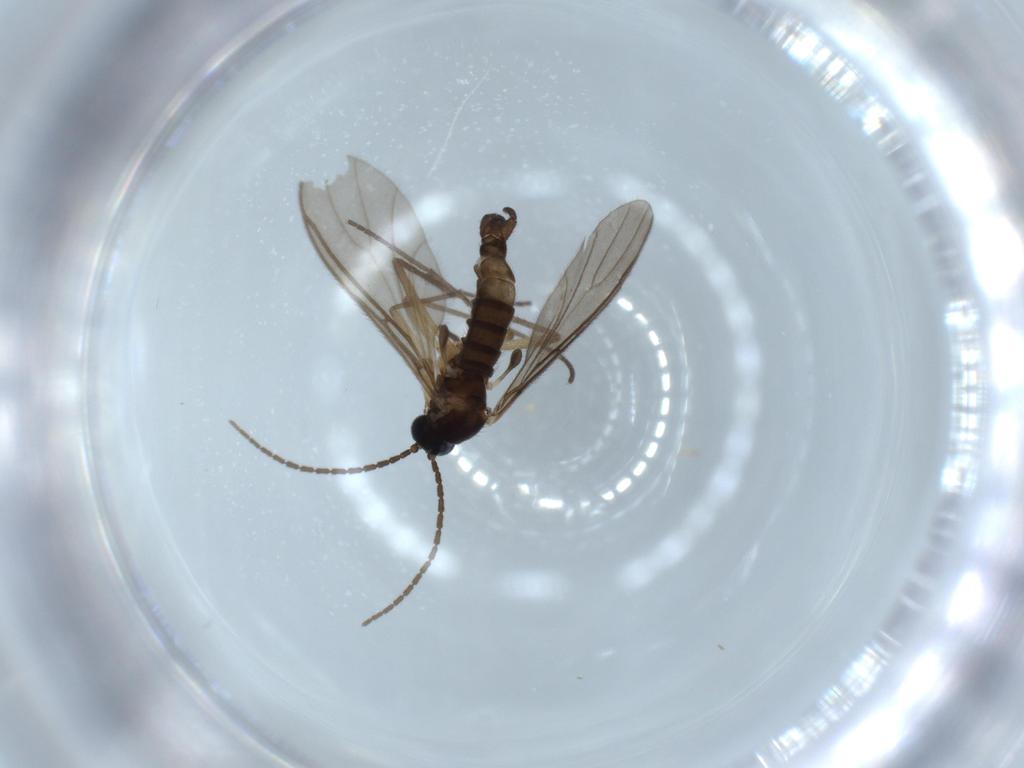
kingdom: Animalia
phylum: Arthropoda
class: Insecta
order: Diptera
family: Sciaridae
